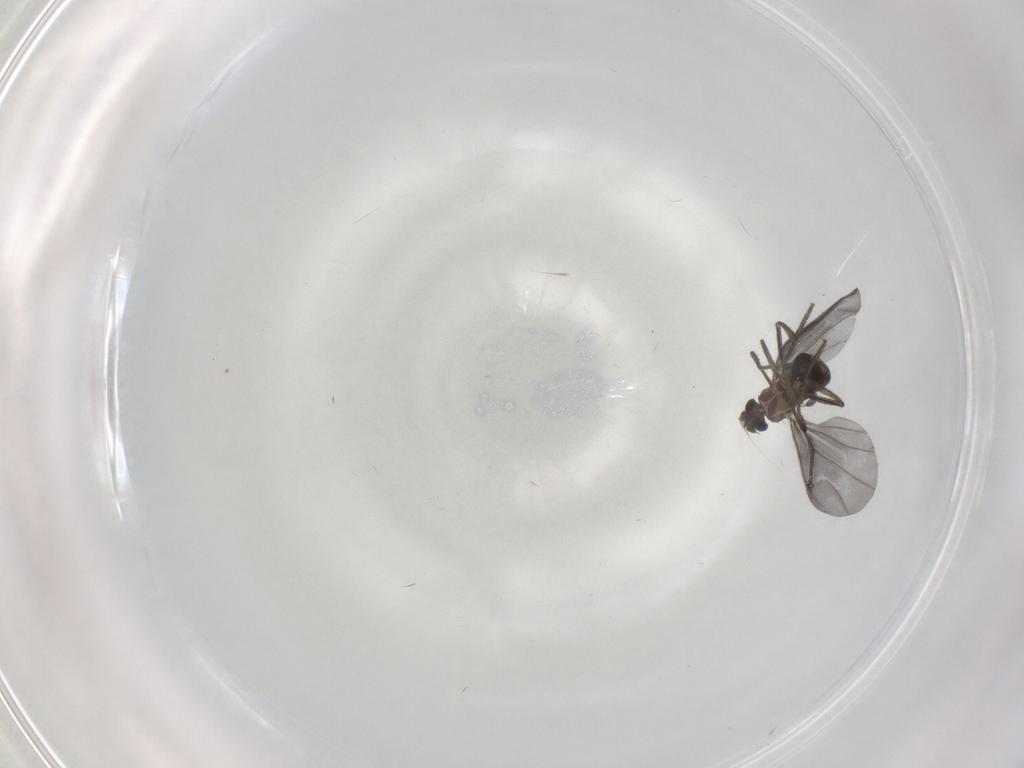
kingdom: Animalia
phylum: Arthropoda
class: Insecta
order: Diptera
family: Phoridae
